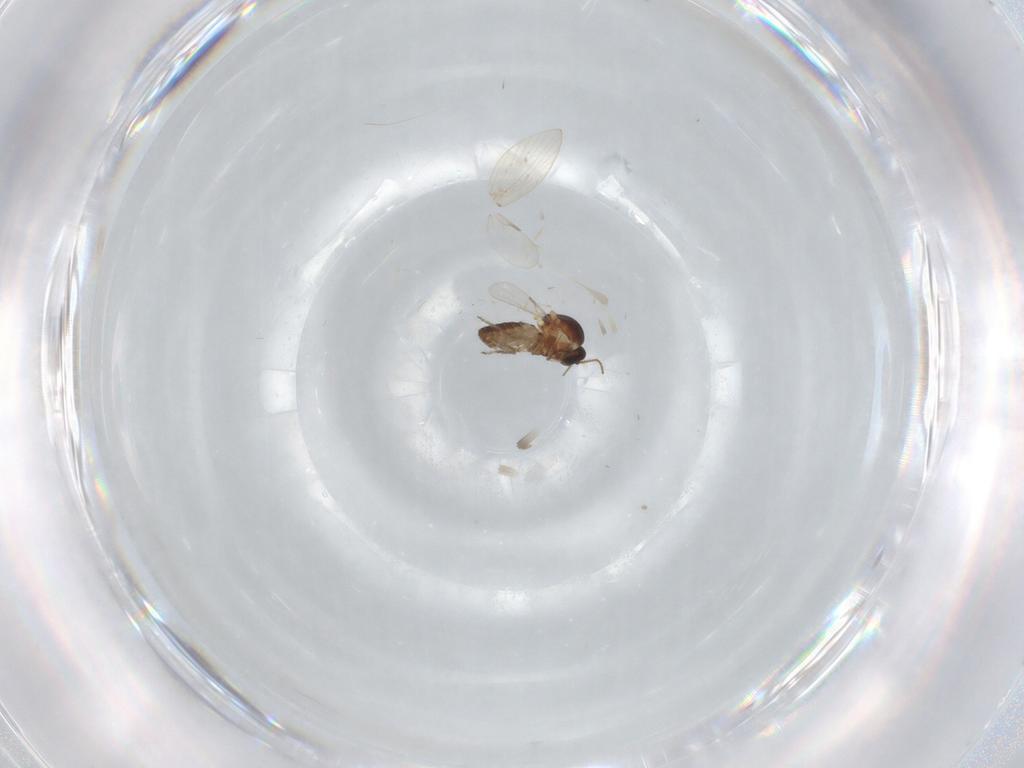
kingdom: Animalia
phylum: Arthropoda
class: Insecta
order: Diptera
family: Ceratopogonidae
